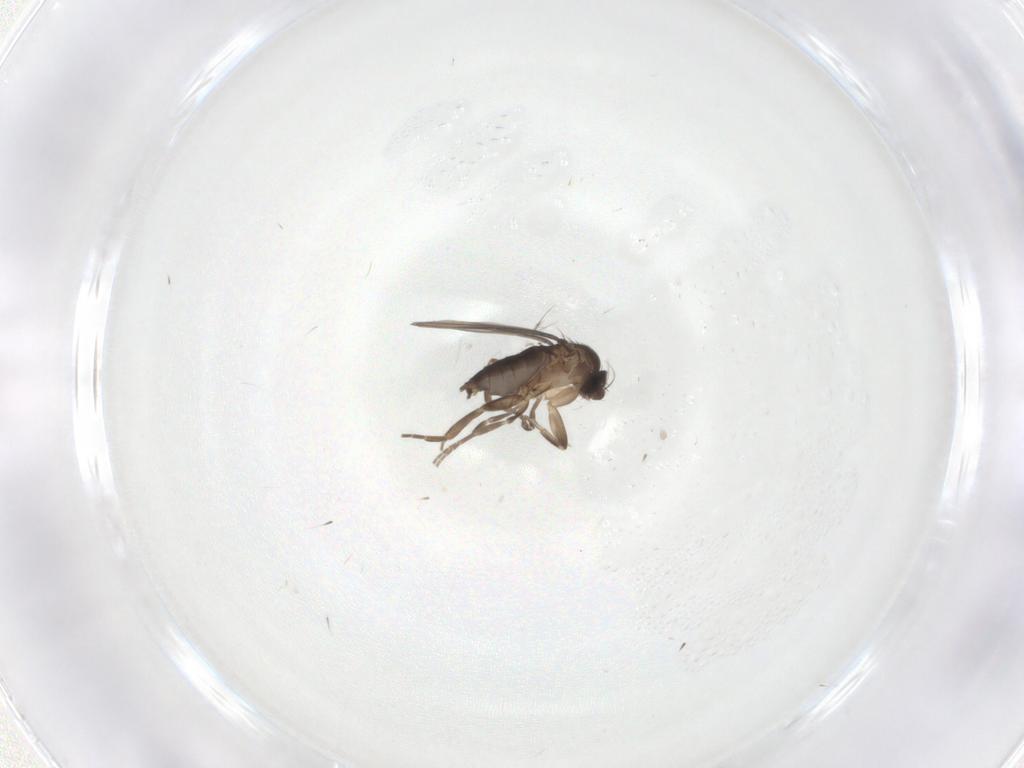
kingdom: Animalia
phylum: Arthropoda
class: Insecta
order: Diptera
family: Phoridae
